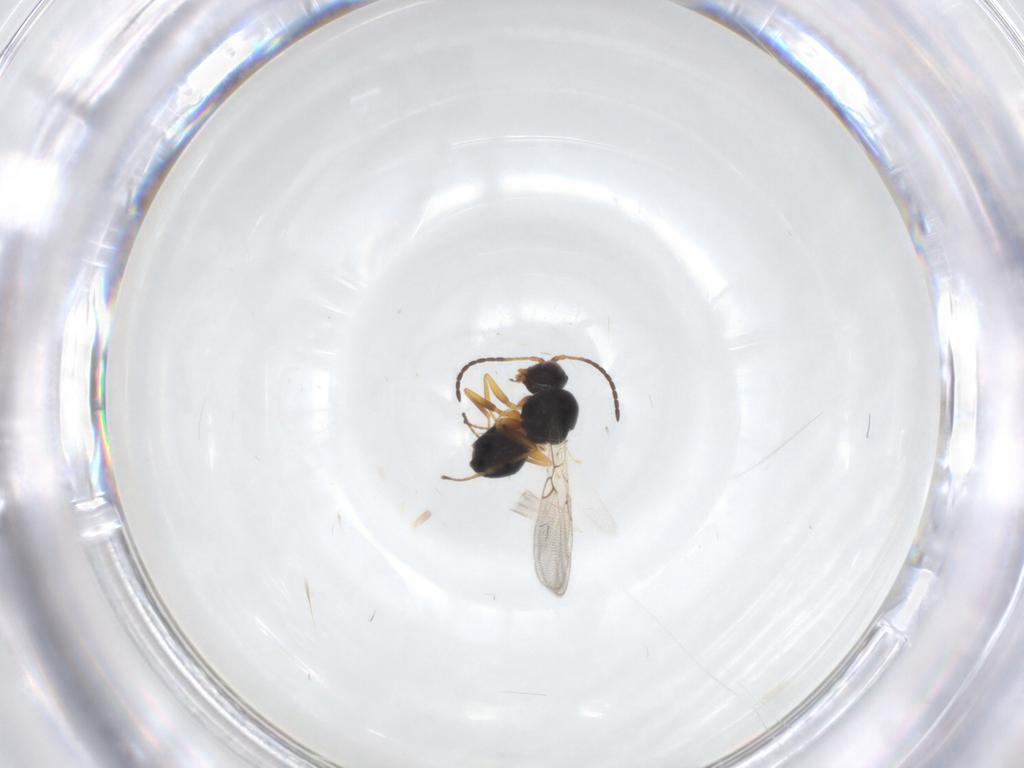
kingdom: Animalia
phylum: Arthropoda
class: Insecta
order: Hymenoptera
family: Figitidae
